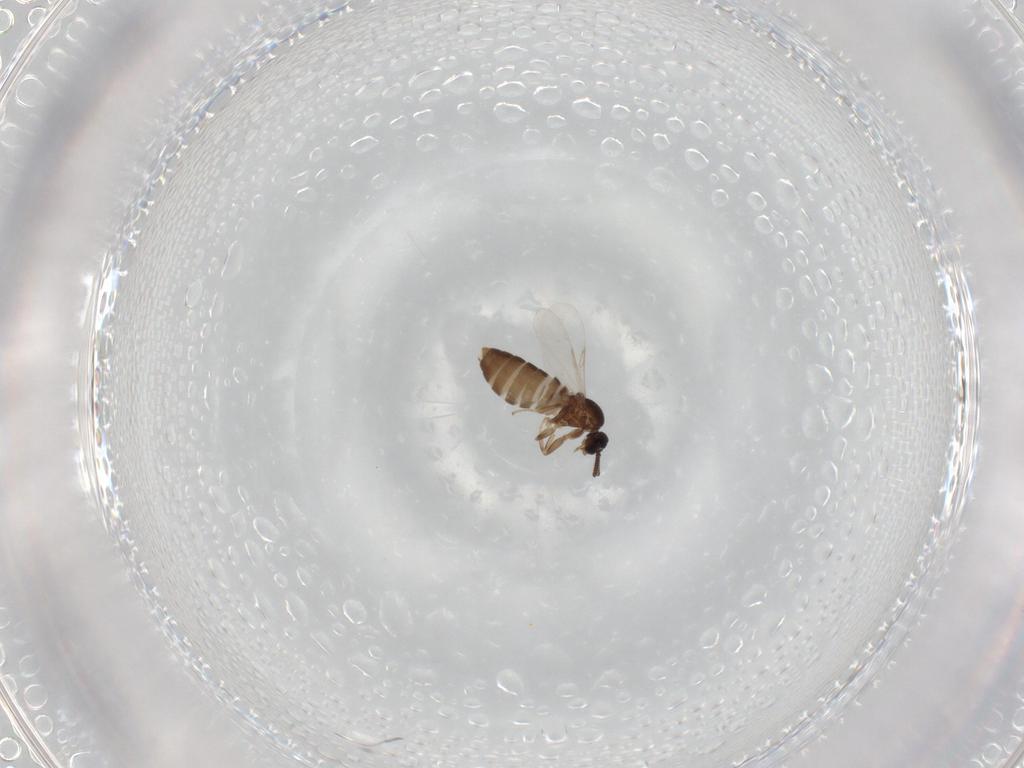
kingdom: Animalia
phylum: Arthropoda
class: Insecta
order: Diptera
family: Scatopsidae
